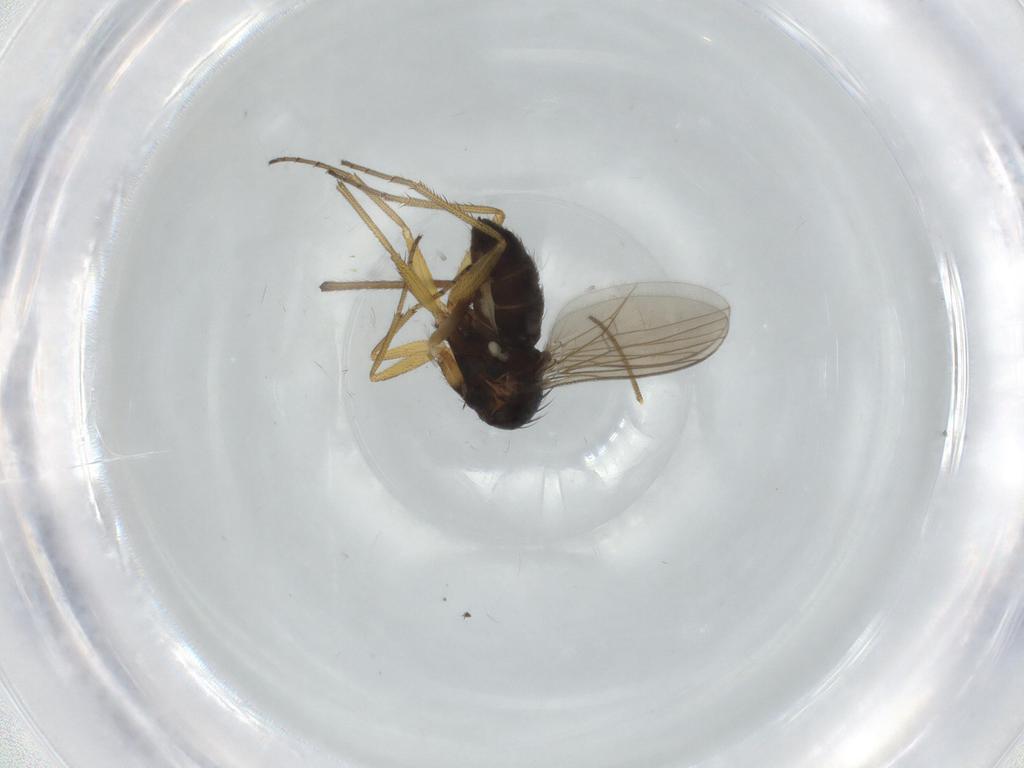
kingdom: Animalia
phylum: Arthropoda
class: Insecta
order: Diptera
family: Dolichopodidae
